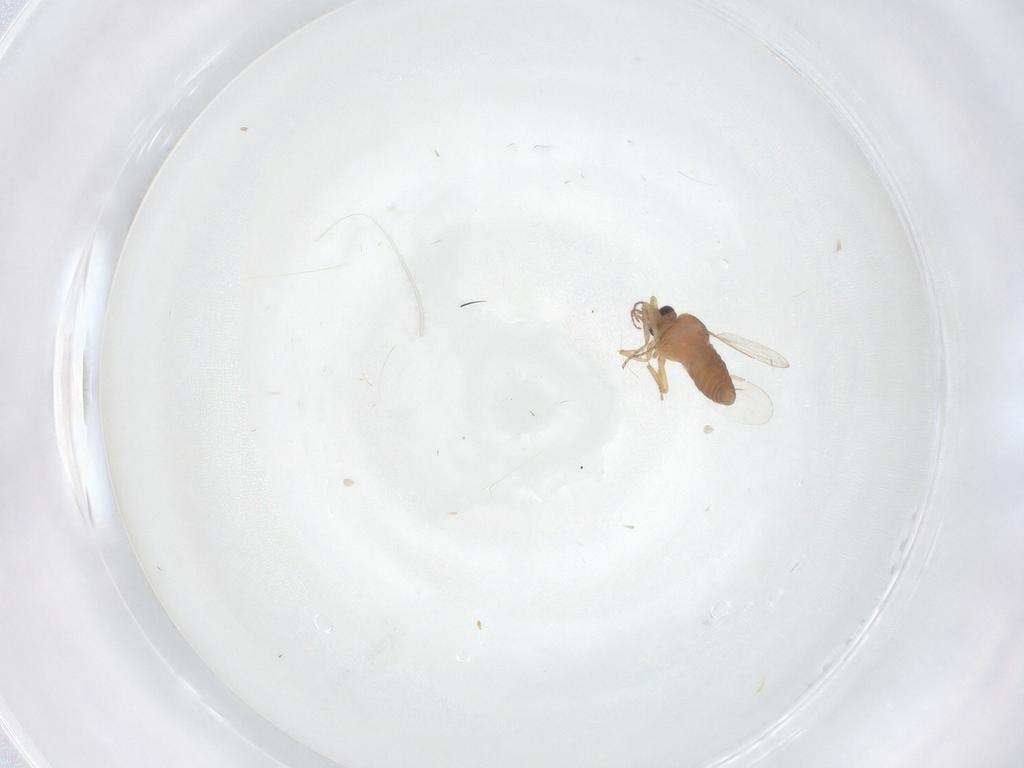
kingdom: Animalia
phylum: Arthropoda
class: Insecta
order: Diptera
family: Ceratopogonidae
